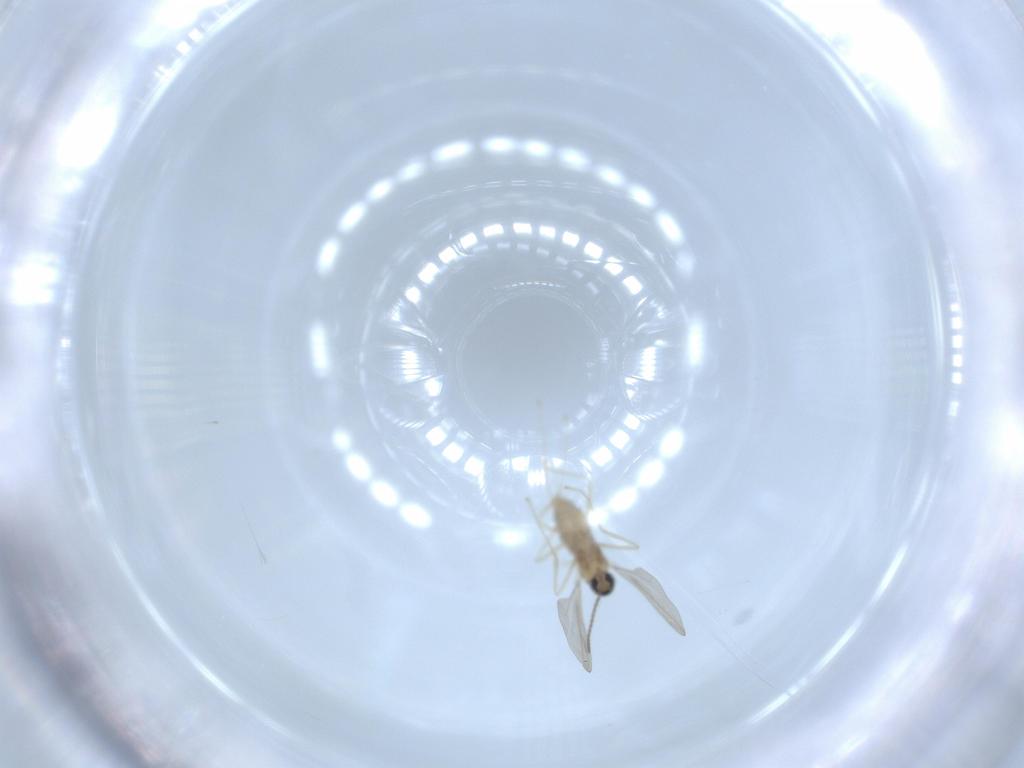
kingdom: Animalia
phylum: Arthropoda
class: Insecta
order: Diptera
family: Cecidomyiidae
